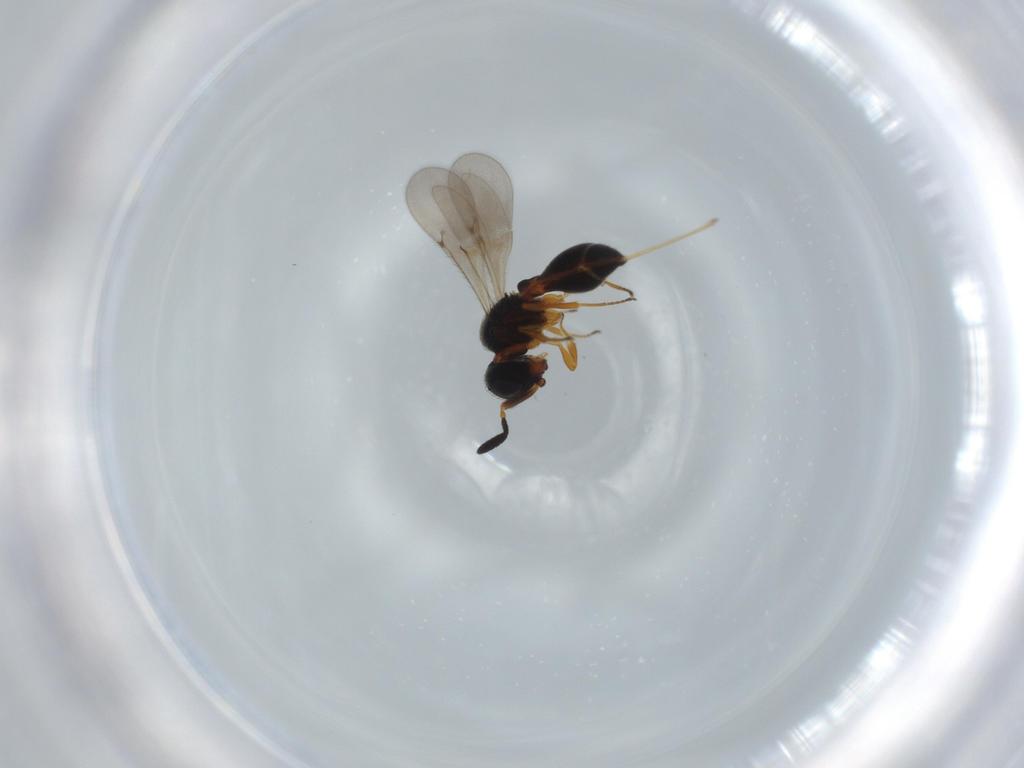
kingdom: Animalia
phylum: Arthropoda
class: Insecta
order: Hymenoptera
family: Scelionidae
